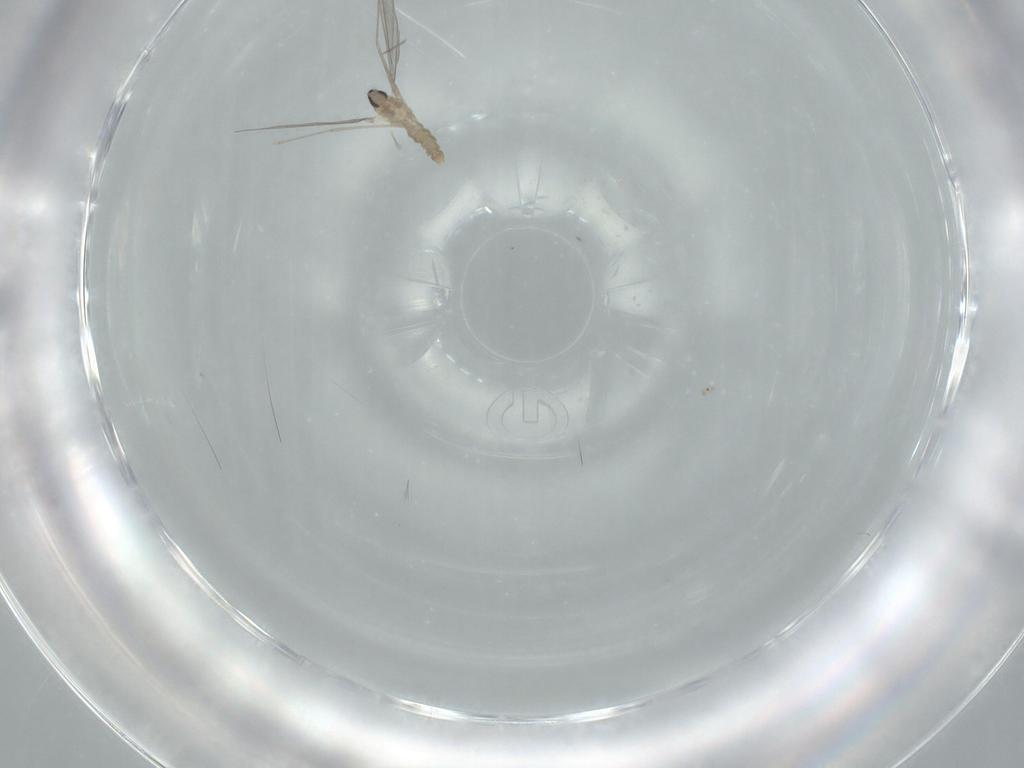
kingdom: Animalia
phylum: Arthropoda
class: Insecta
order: Diptera
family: Cecidomyiidae
